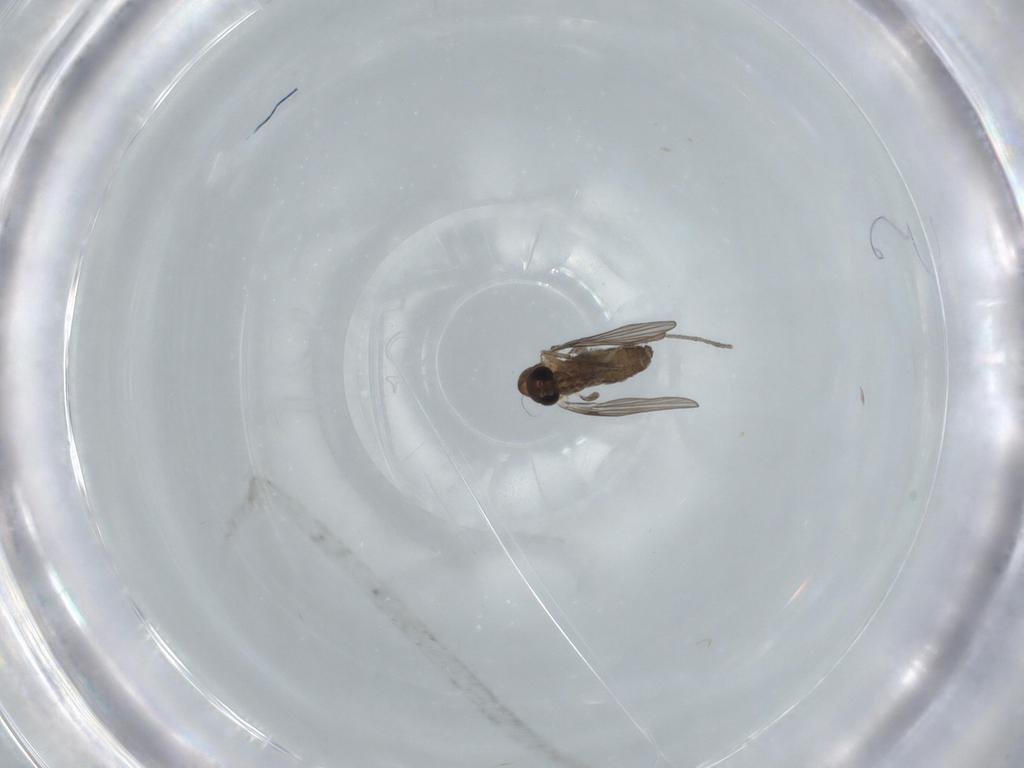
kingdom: Animalia
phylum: Arthropoda
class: Insecta
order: Diptera
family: Psychodidae
